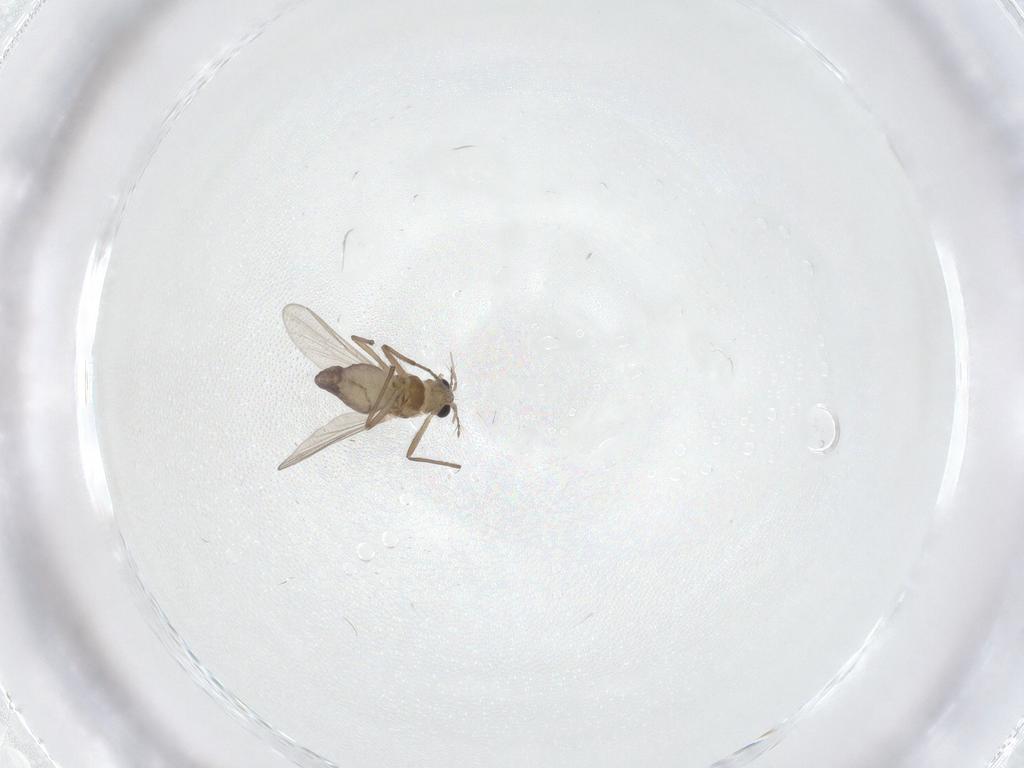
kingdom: Animalia
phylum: Arthropoda
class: Insecta
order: Diptera
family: Chironomidae
